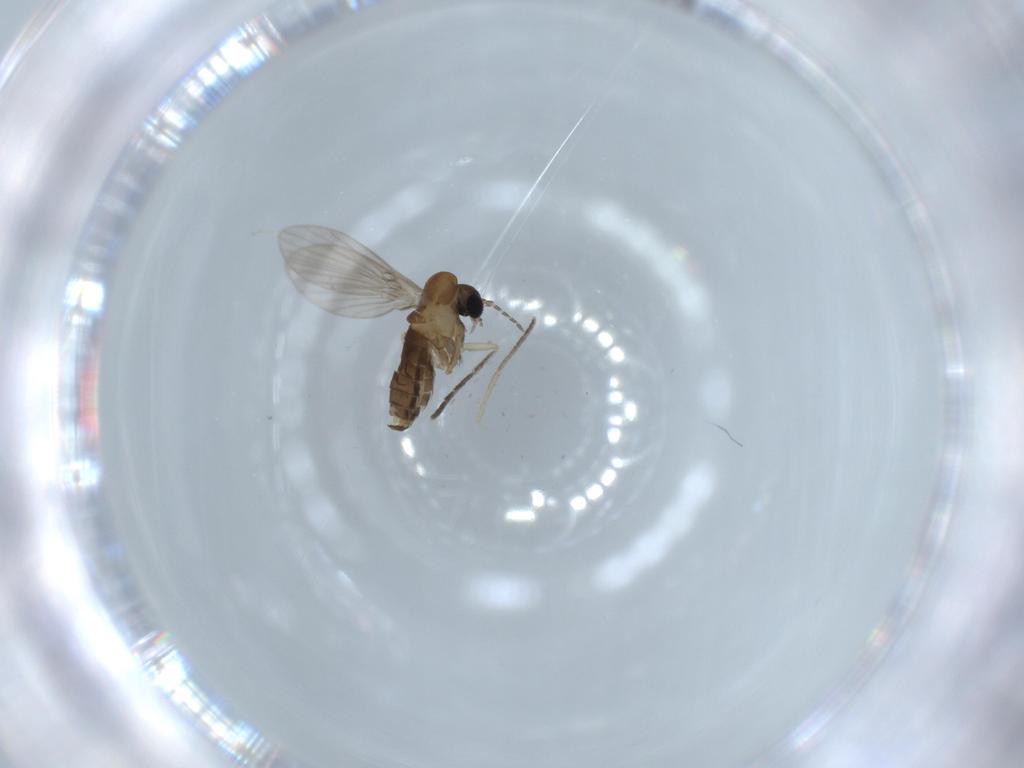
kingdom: Animalia
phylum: Arthropoda
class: Insecta
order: Diptera
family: Psychodidae
